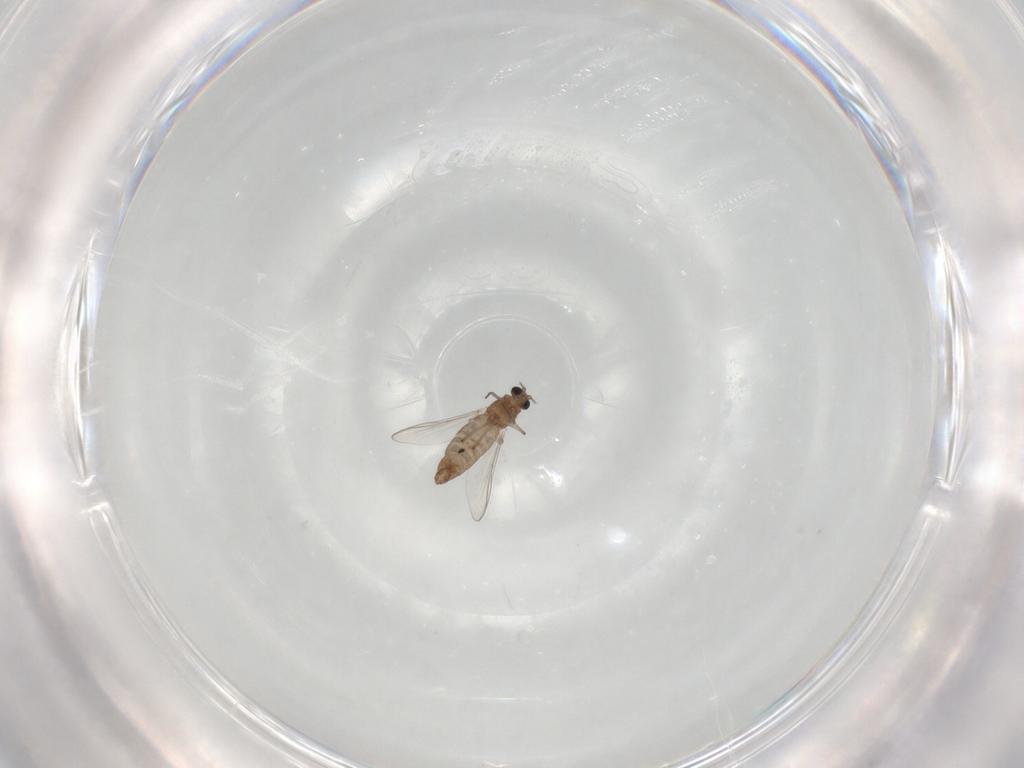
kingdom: Animalia
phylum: Arthropoda
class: Insecta
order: Diptera
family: Chironomidae
